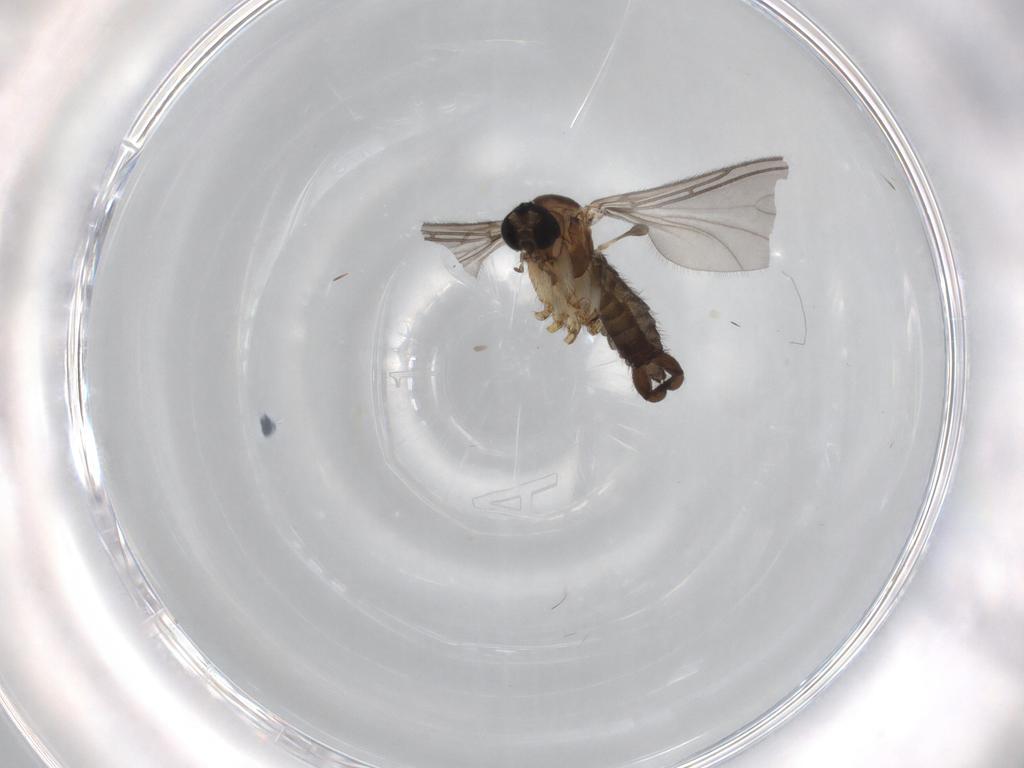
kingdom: Animalia
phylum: Arthropoda
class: Insecta
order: Diptera
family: Sciaridae
